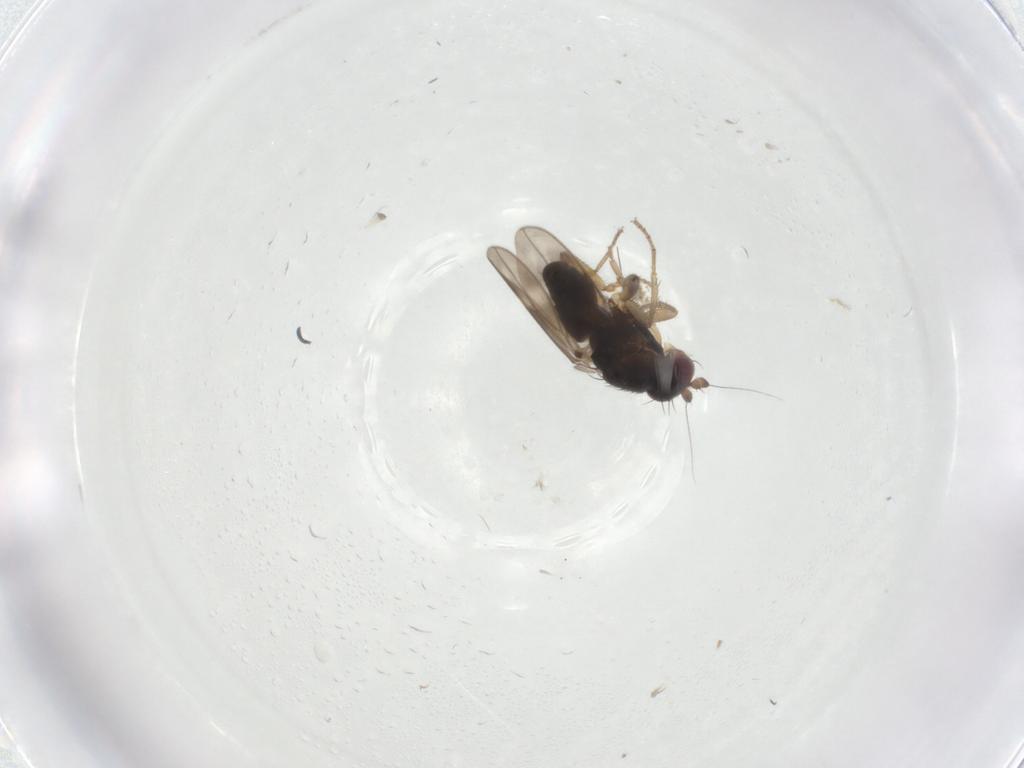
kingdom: Animalia
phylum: Arthropoda
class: Insecta
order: Diptera
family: Sphaeroceridae
